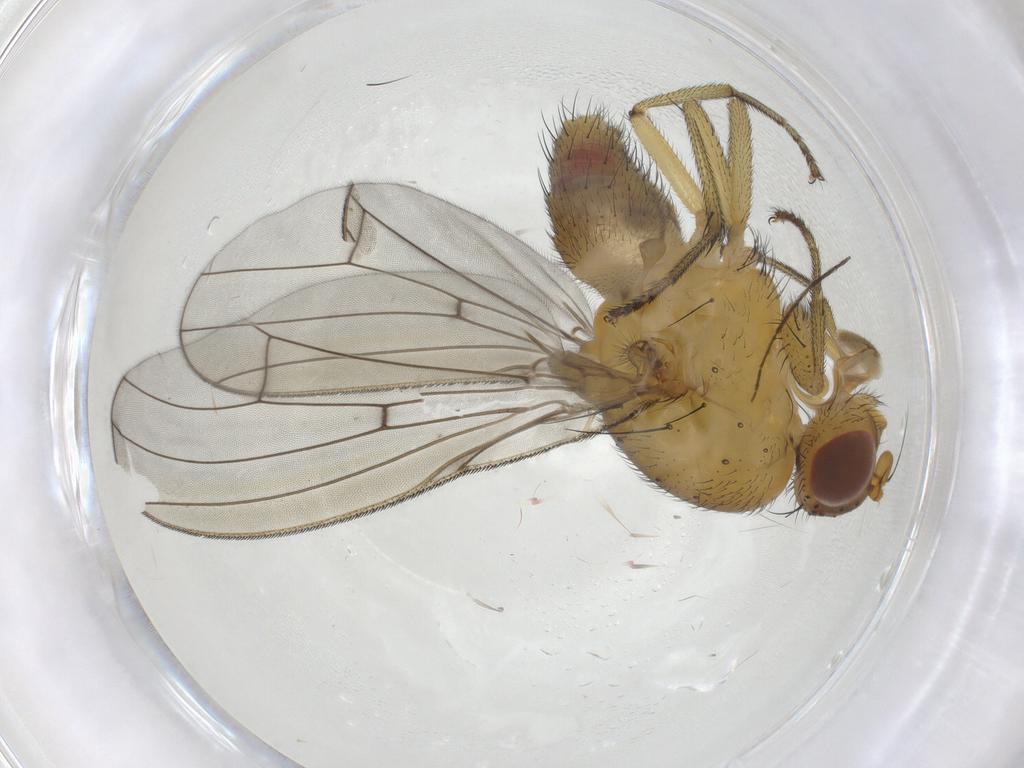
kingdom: Animalia
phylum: Arthropoda
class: Insecta
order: Diptera
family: Chironomidae
